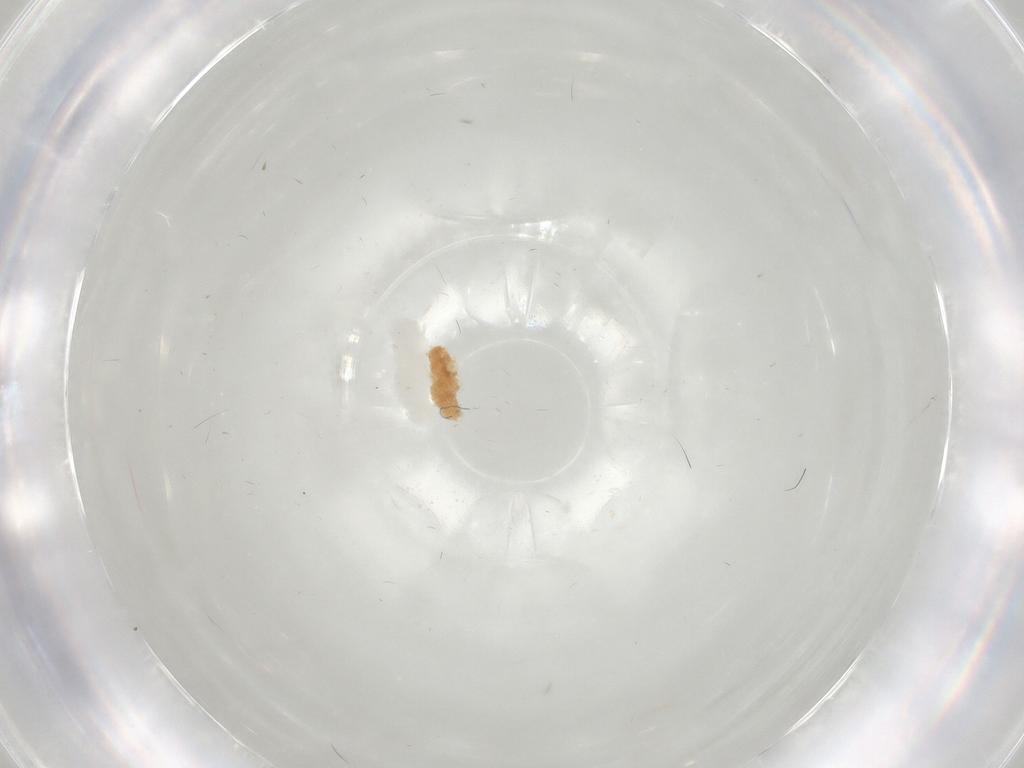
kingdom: Animalia
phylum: Arthropoda
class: Insecta
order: Hemiptera
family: Aleyrodidae
